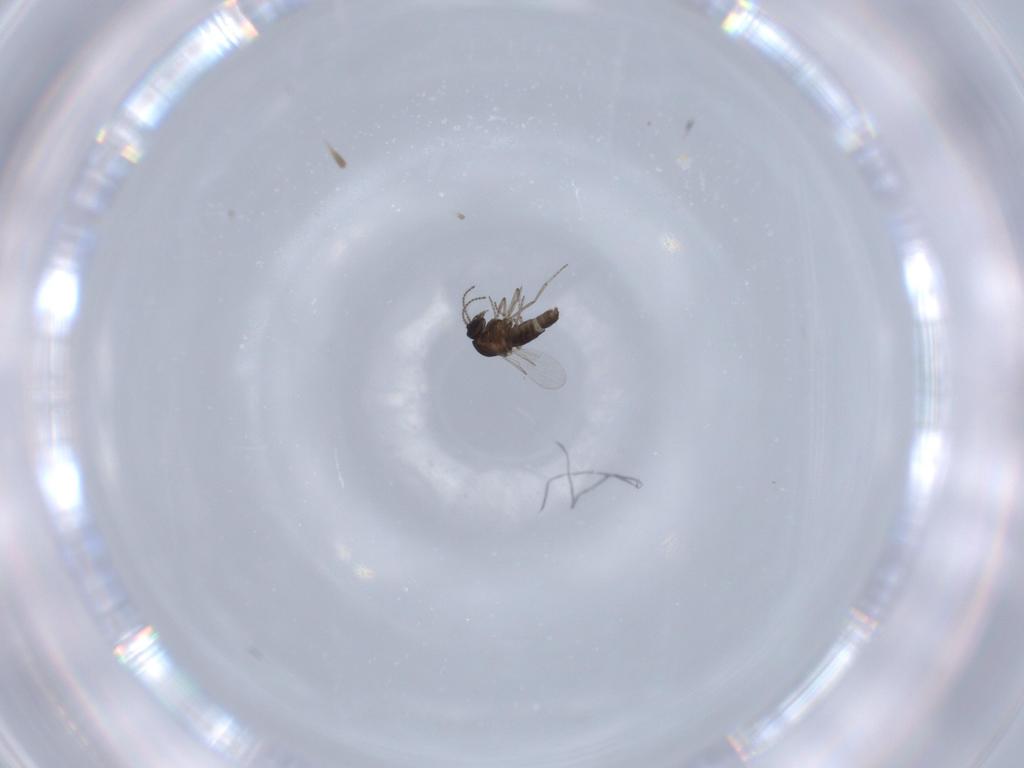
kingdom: Animalia
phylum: Arthropoda
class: Insecta
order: Diptera
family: Ceratopogonidae
